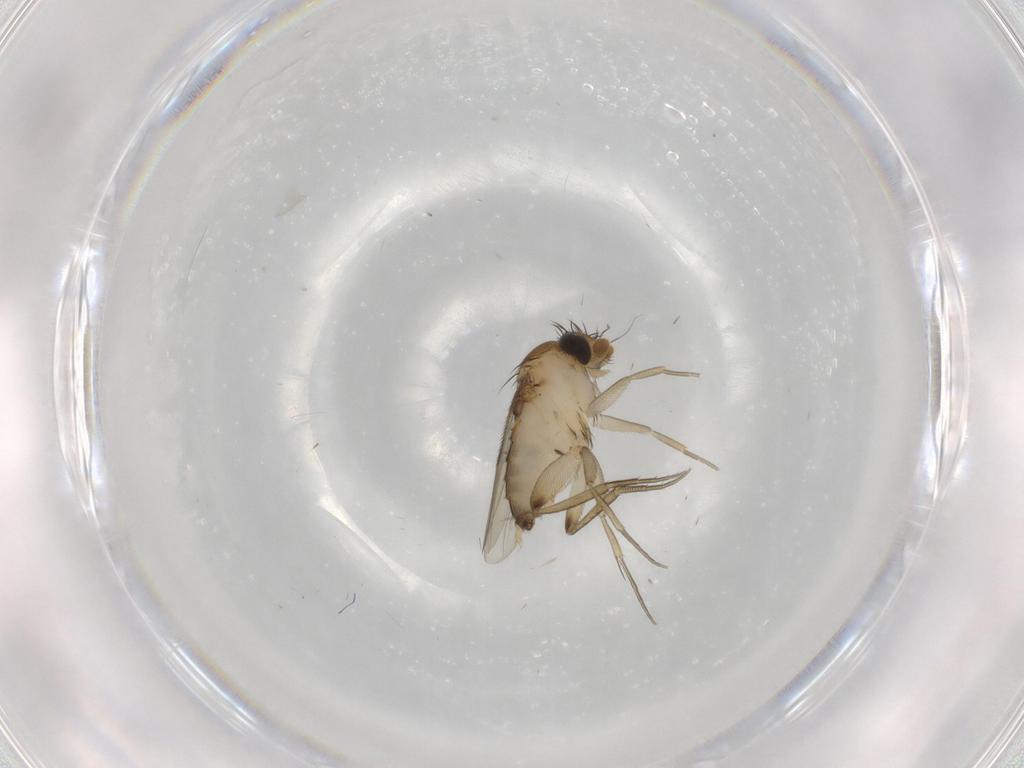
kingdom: Animalia
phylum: Arthropoda
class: Insecta
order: Diptera
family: Phoridae
